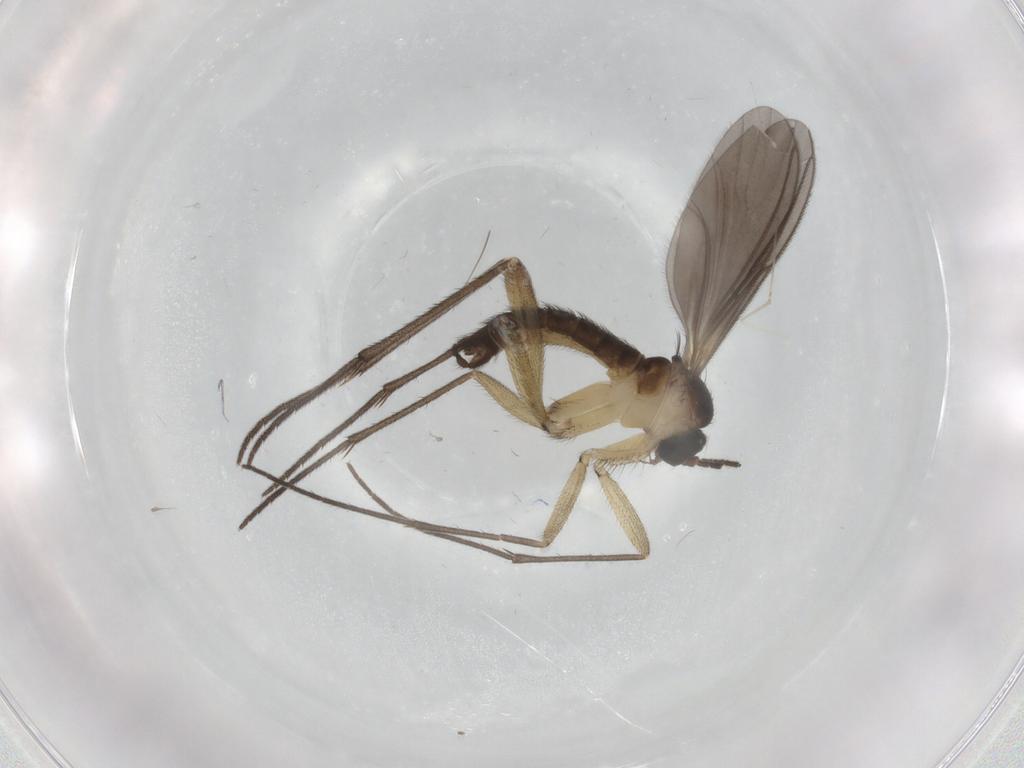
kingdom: Animalia
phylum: Arthropoda
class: Insecta
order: Diptera
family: Sciaridae
